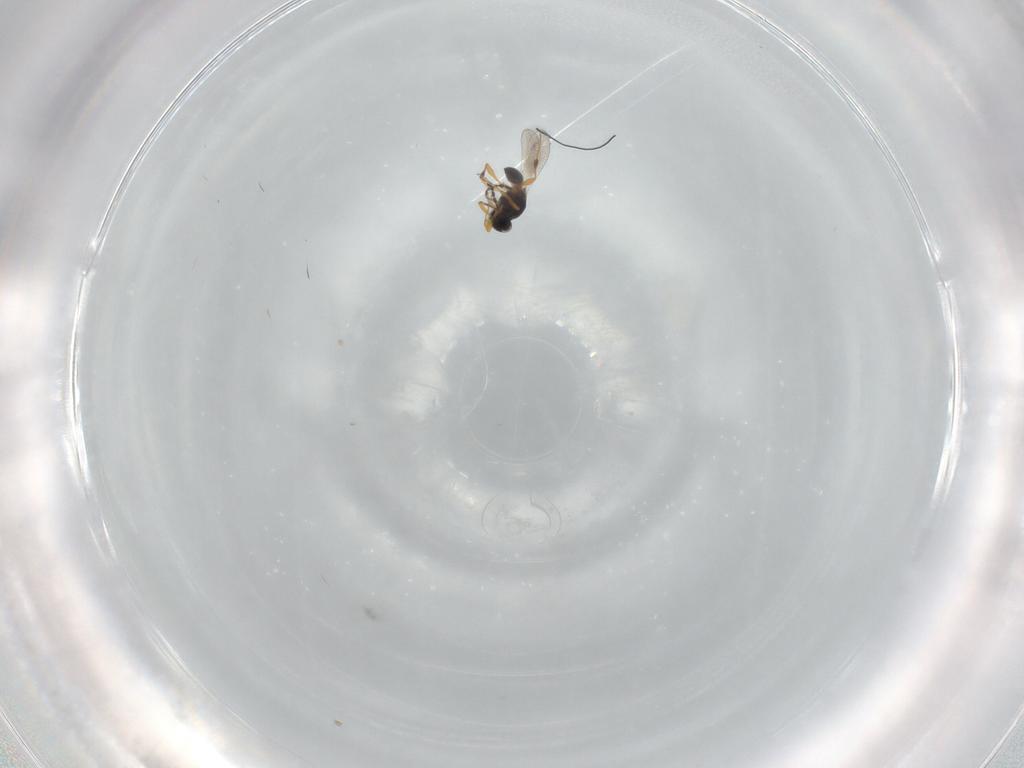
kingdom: Animalia
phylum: Arthropoda
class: Insecta
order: Hymenoptera
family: Platygastridae
